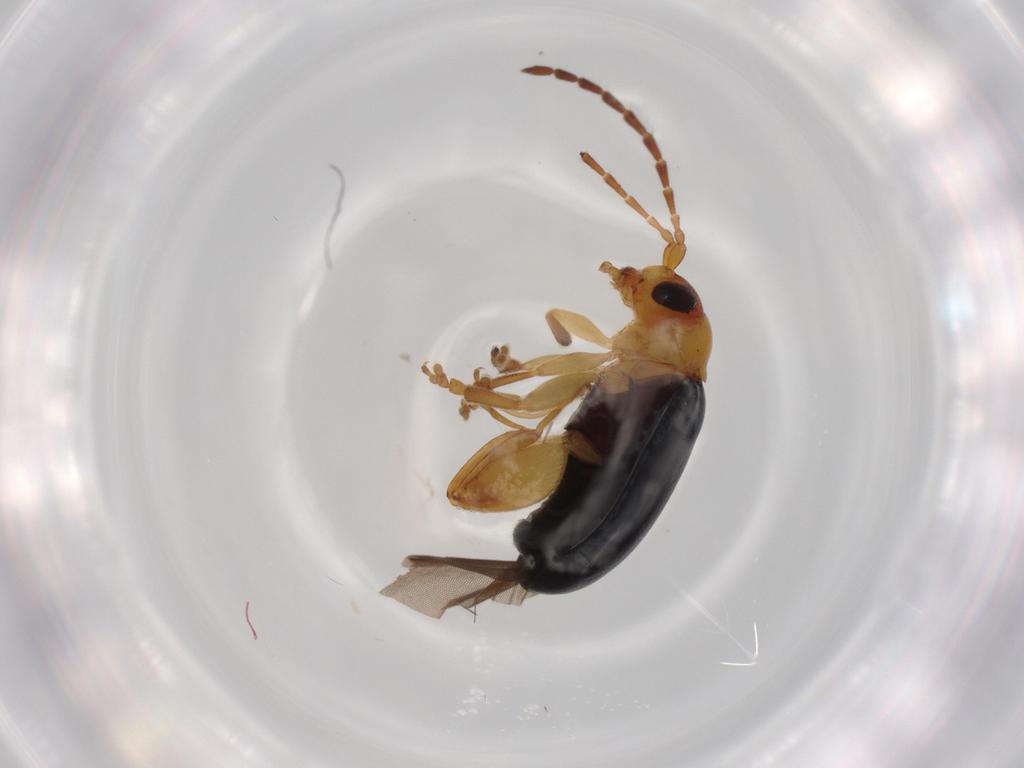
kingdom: Animalia
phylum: Arthropoda
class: Insecta
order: Coleoptera
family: Chrysomelidae
